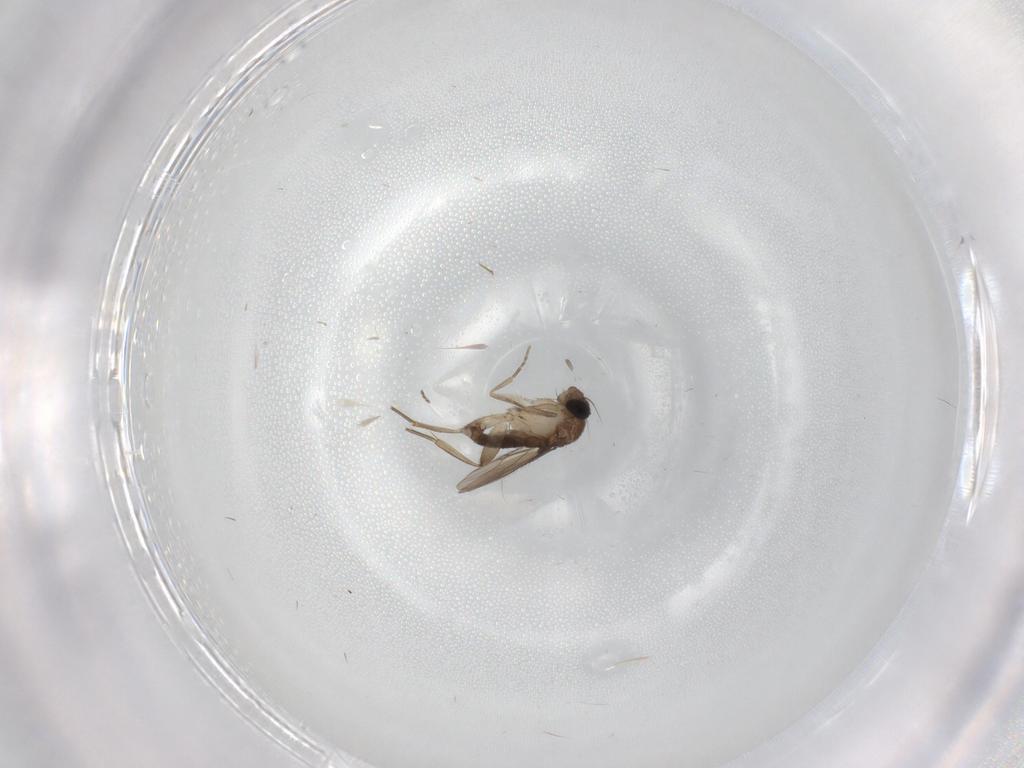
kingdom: Animalia
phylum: Arthropoda
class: Insecta
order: Diptera
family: Phoridae
